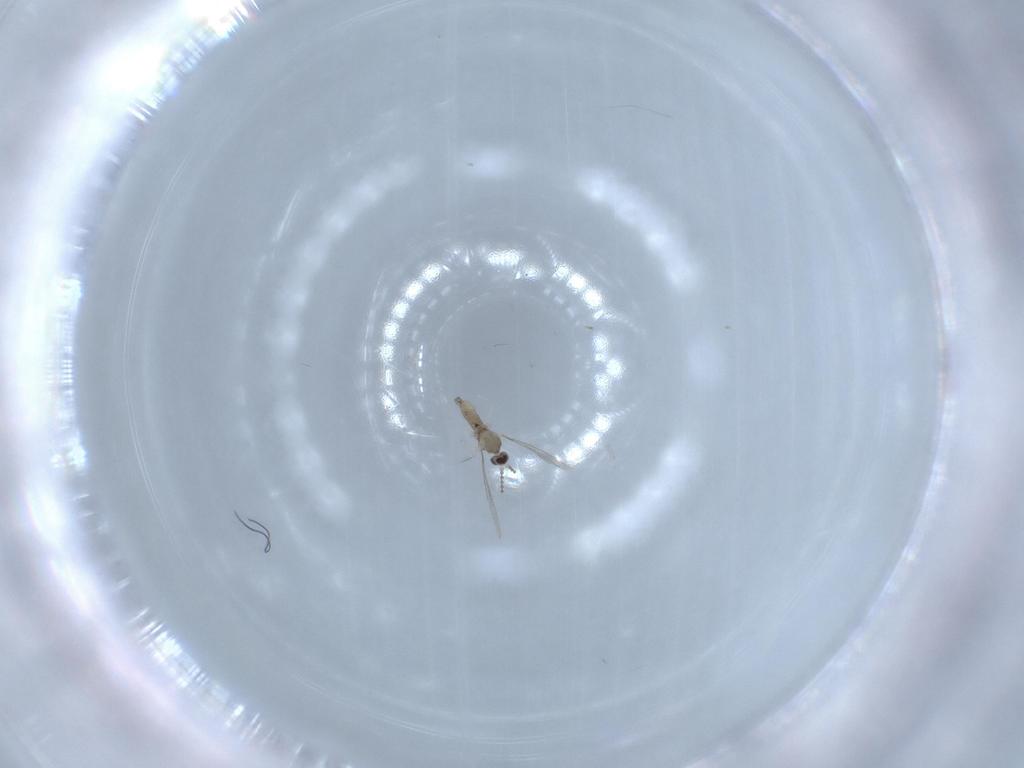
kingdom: Animalia
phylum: Arthropoda
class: Insecta
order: Diptera
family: Cecidomyiidae
